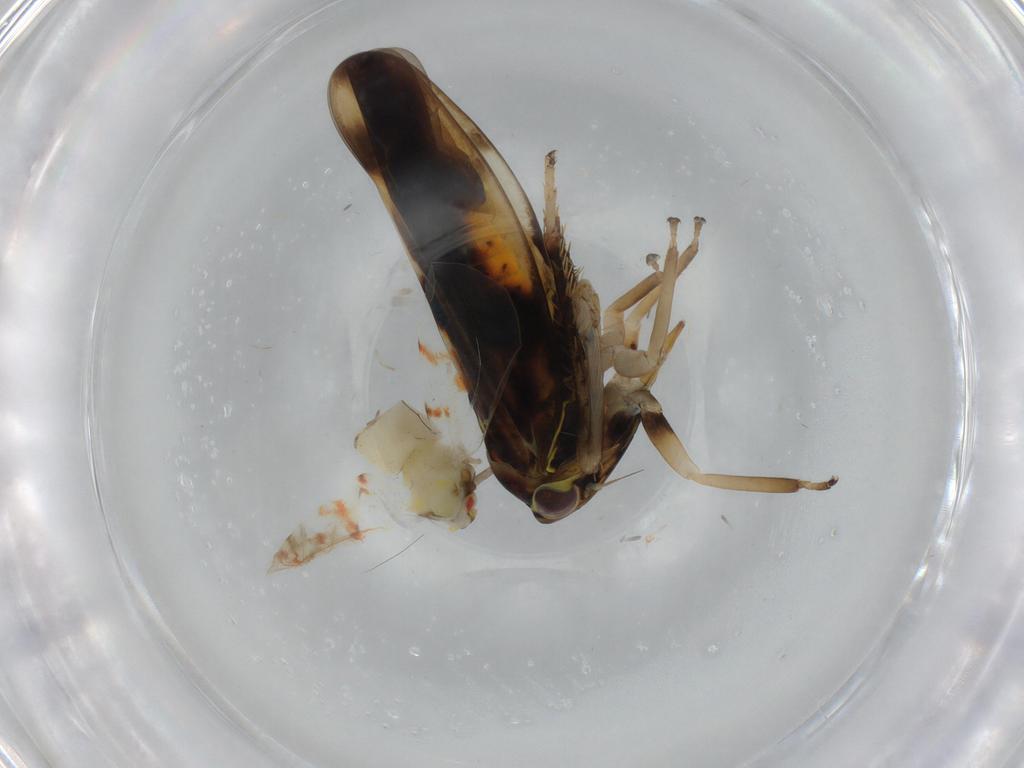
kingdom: Animalia
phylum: Arthropoda
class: Insecta
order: Diptera
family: Phoridae
